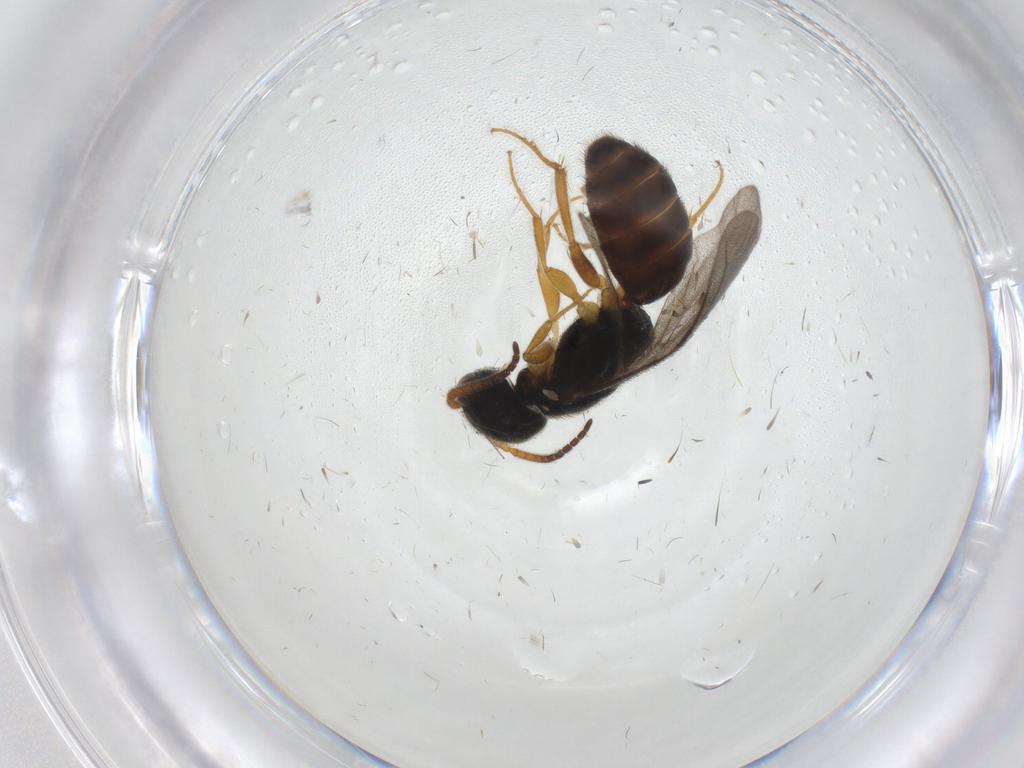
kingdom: Animalia
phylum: Arthropoda
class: Insecta
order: Hymenoptera
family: Bethylidae
